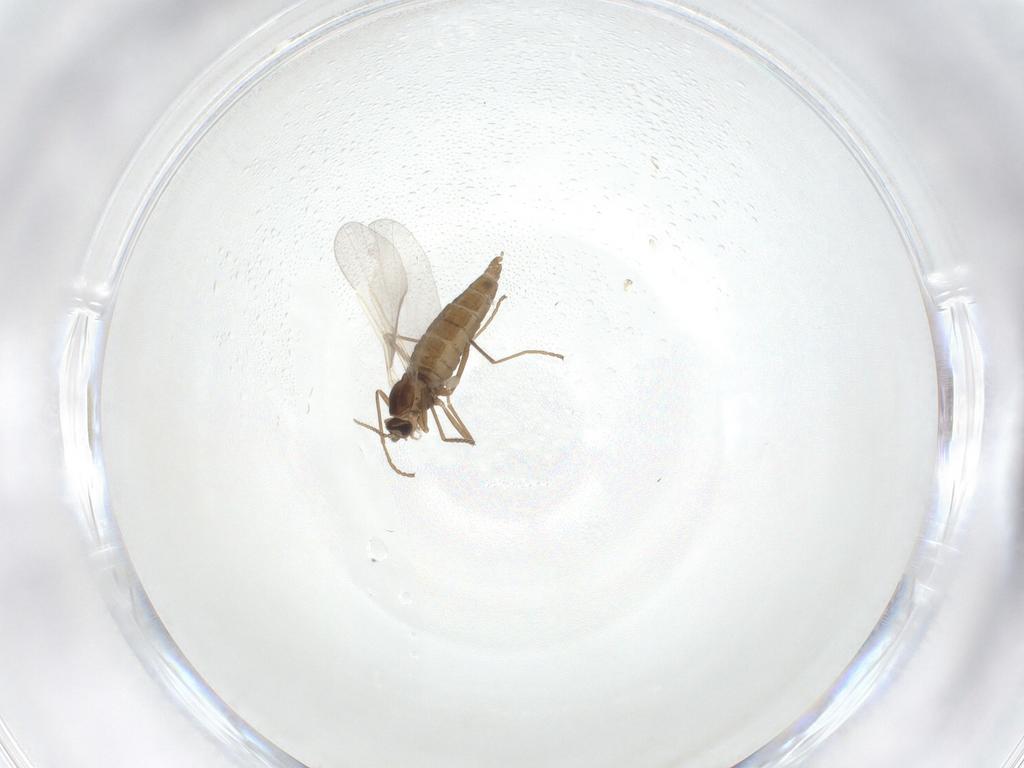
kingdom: Animalia
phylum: Arthropoda
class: Insecta
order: Diptera
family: Cecidomyiidae
